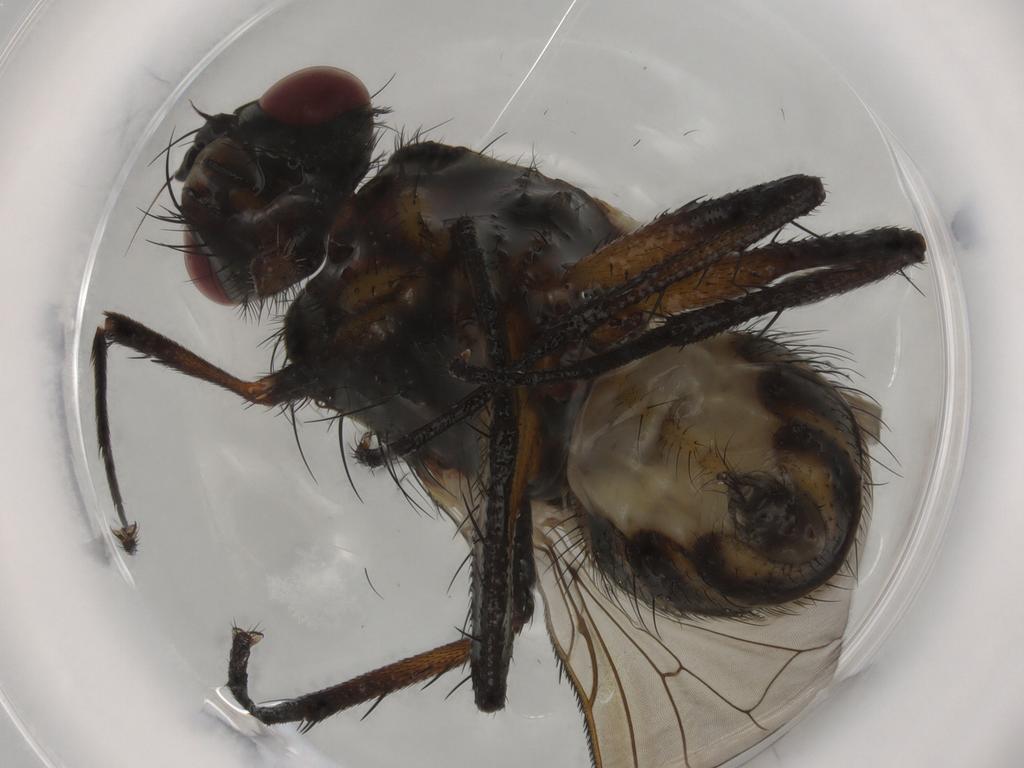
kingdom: Animalia
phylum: Arthropoda
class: Insecta
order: Diptera
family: Anthomyiidae
